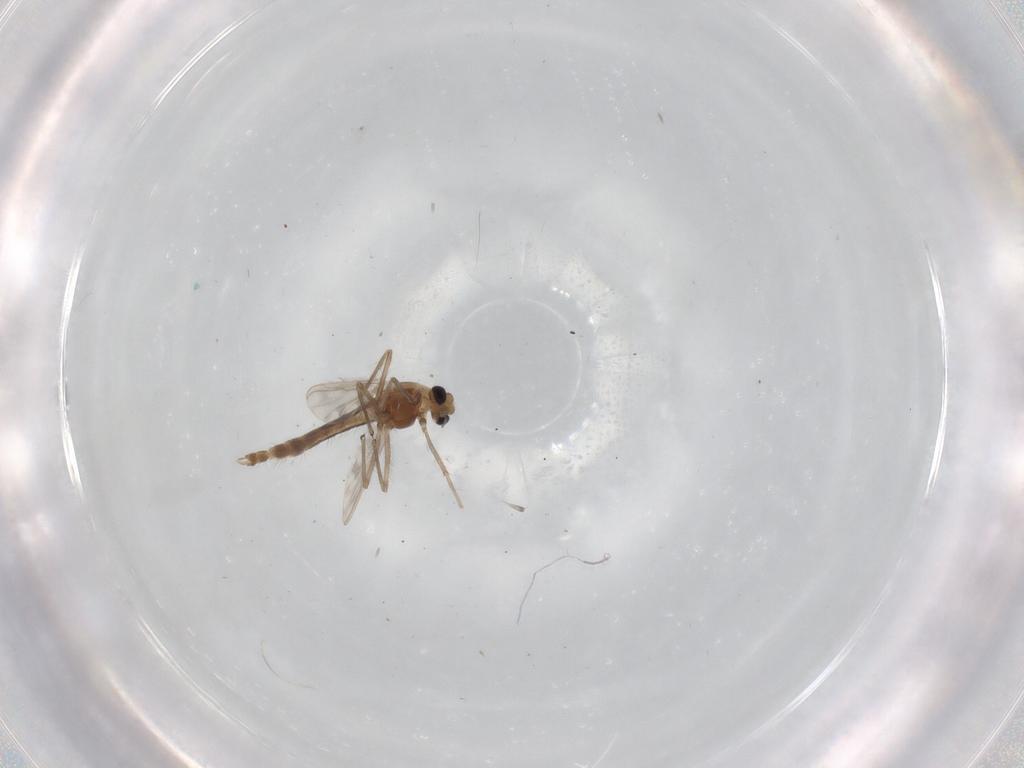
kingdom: Animalia
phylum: Arthropoda
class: Insecta
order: Diptera
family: Chironomidae
